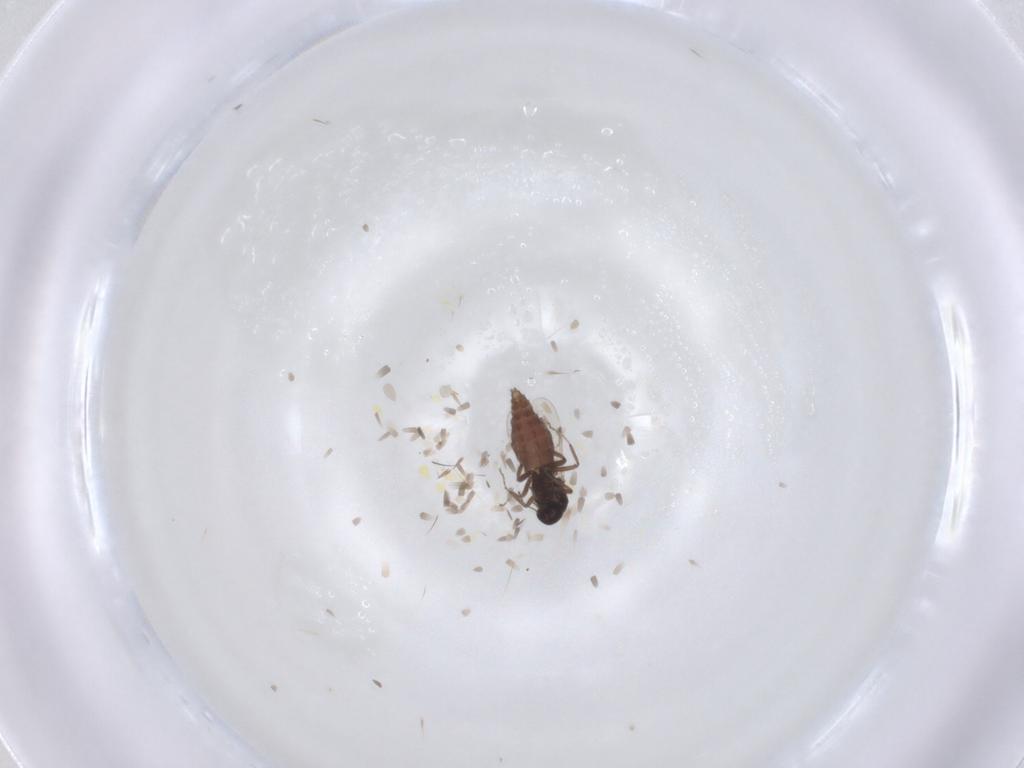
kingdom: Animalia
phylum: Arthropoda
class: Insecta
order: Diptera
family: Ceratopogonidae
